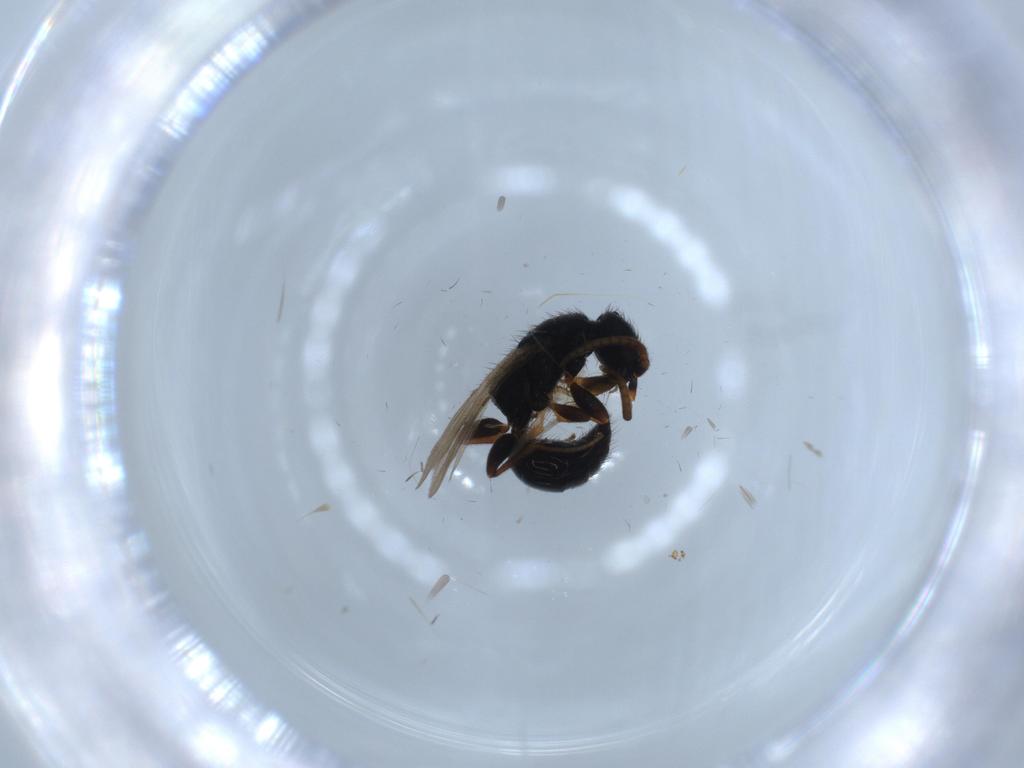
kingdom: Animalia
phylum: Arthropoda
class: Insecta
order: Hymenoptera
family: Bethylidae
